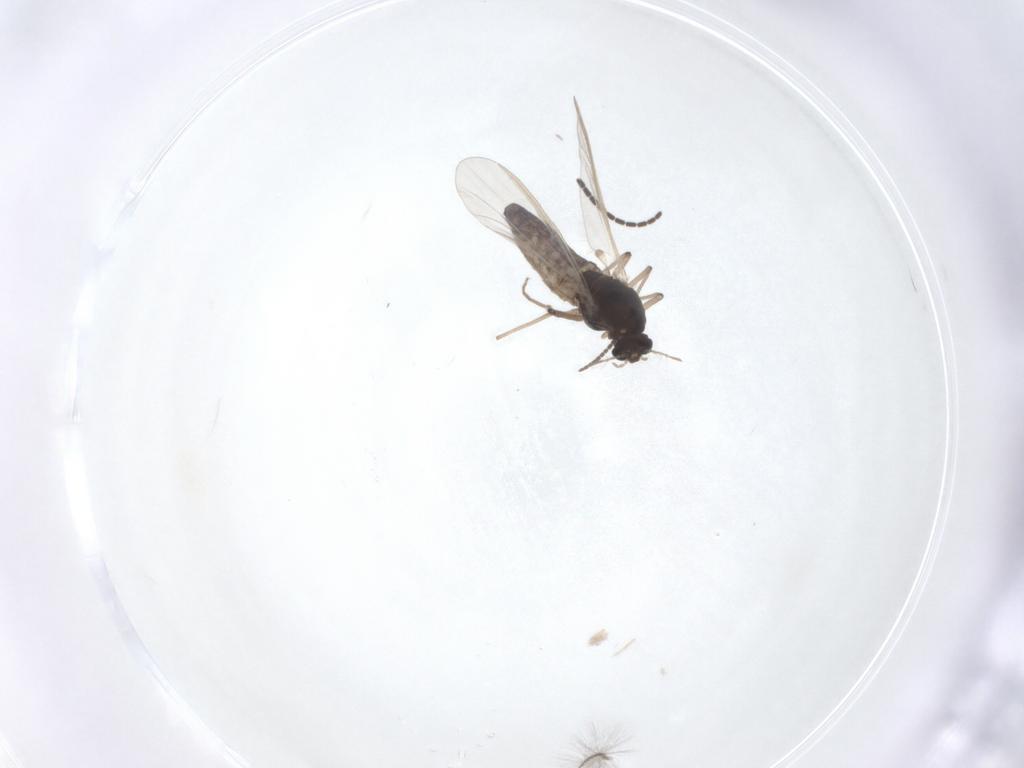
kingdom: Animalia
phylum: Arthropoda
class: Insecta
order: Diptera
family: Chironomidae
